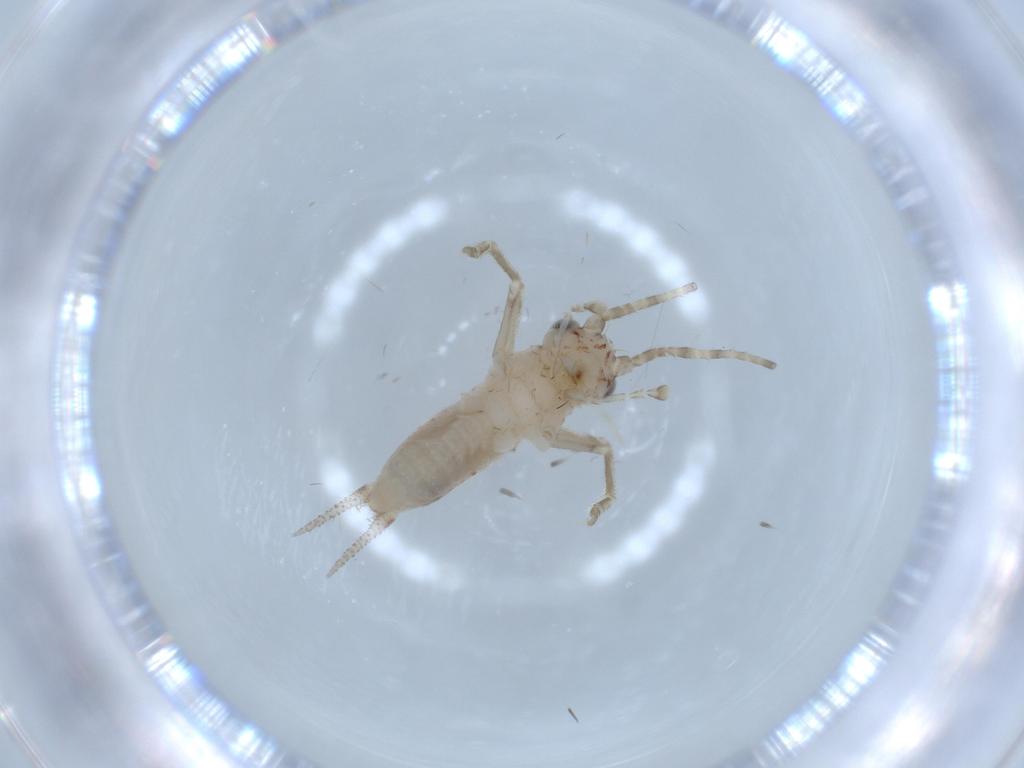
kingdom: Animalia
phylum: Arthropoda
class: Insecta
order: Orthoptera
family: Trigonidiidae
